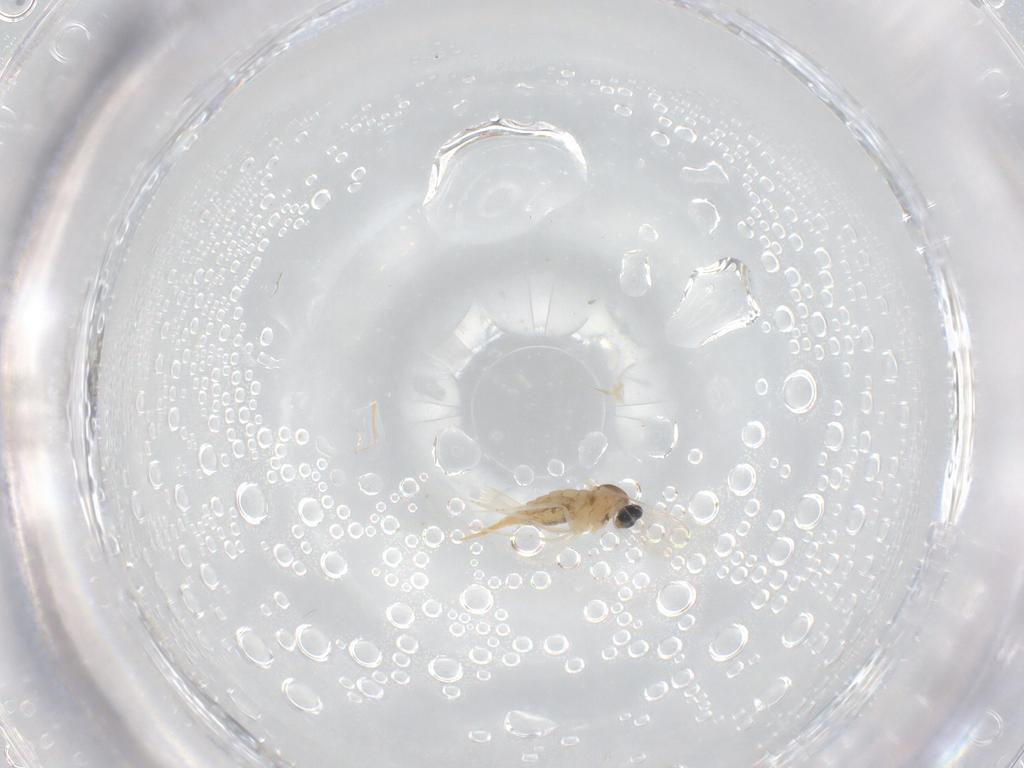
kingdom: Animalia
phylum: Arthropoda
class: Insecta
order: Diptera
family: Cecidomyiidae
